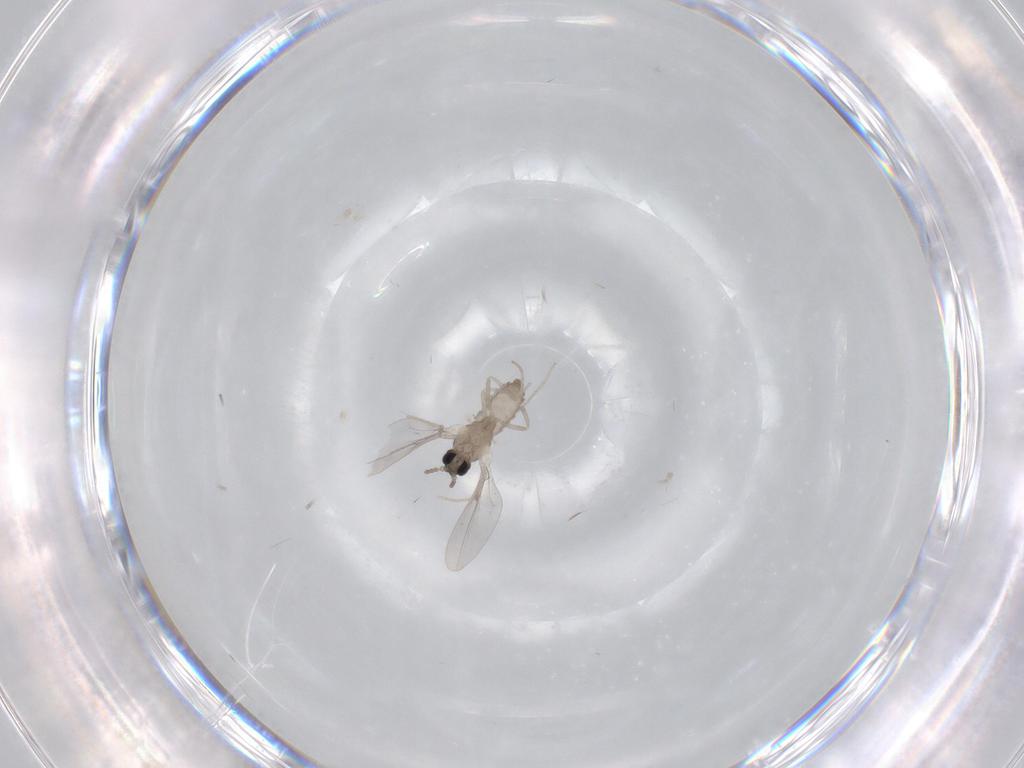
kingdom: Animalia
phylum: Arthropoda
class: Insecta
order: Diptera
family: Cecidomyiidae
